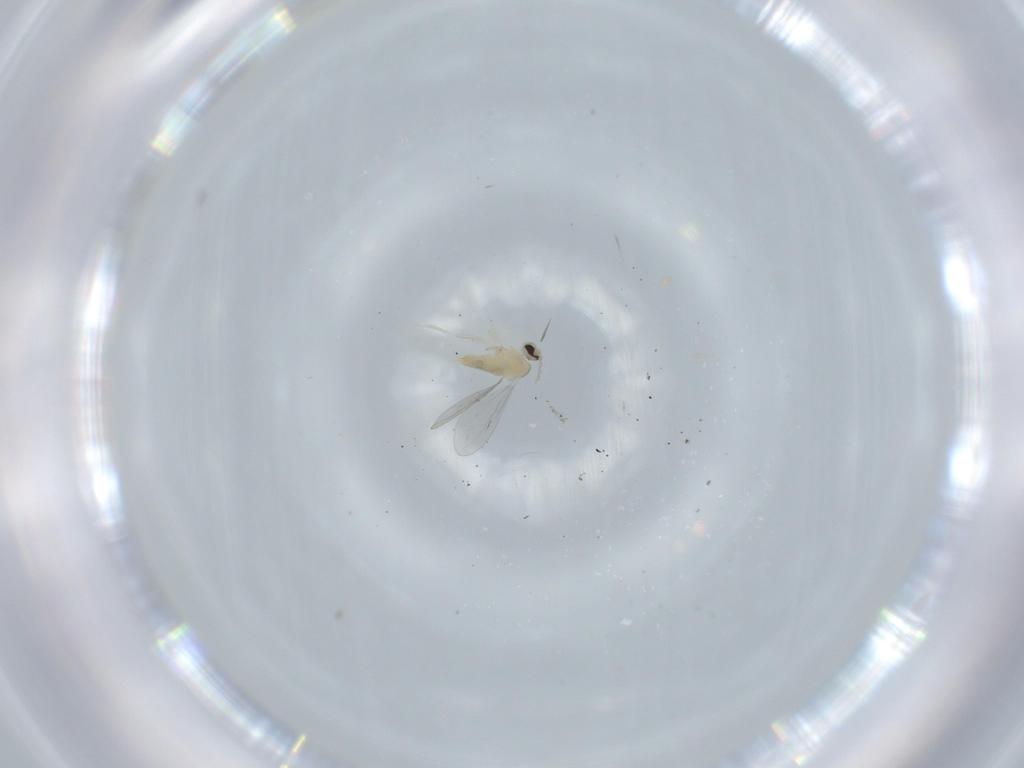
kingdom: Animalia
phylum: Arthropoda
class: Insecta
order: Diptera
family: Cecidomyiidae
